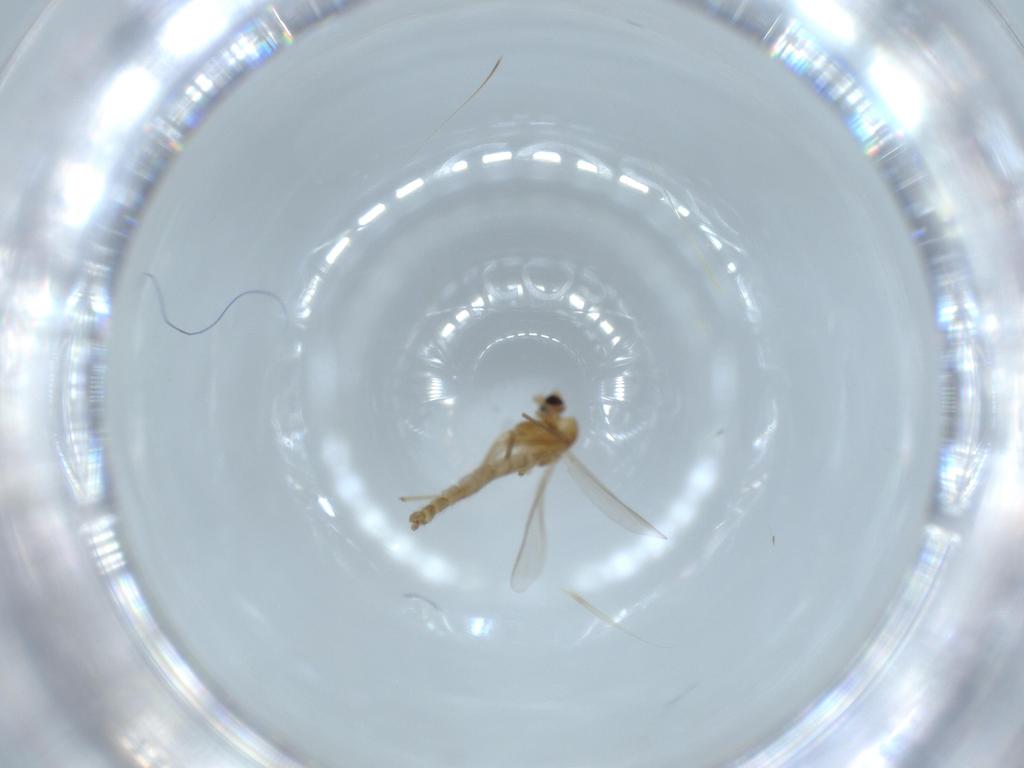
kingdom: Animalia
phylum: Arthropoda
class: Insecta
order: Diptera
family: Chironomidae
